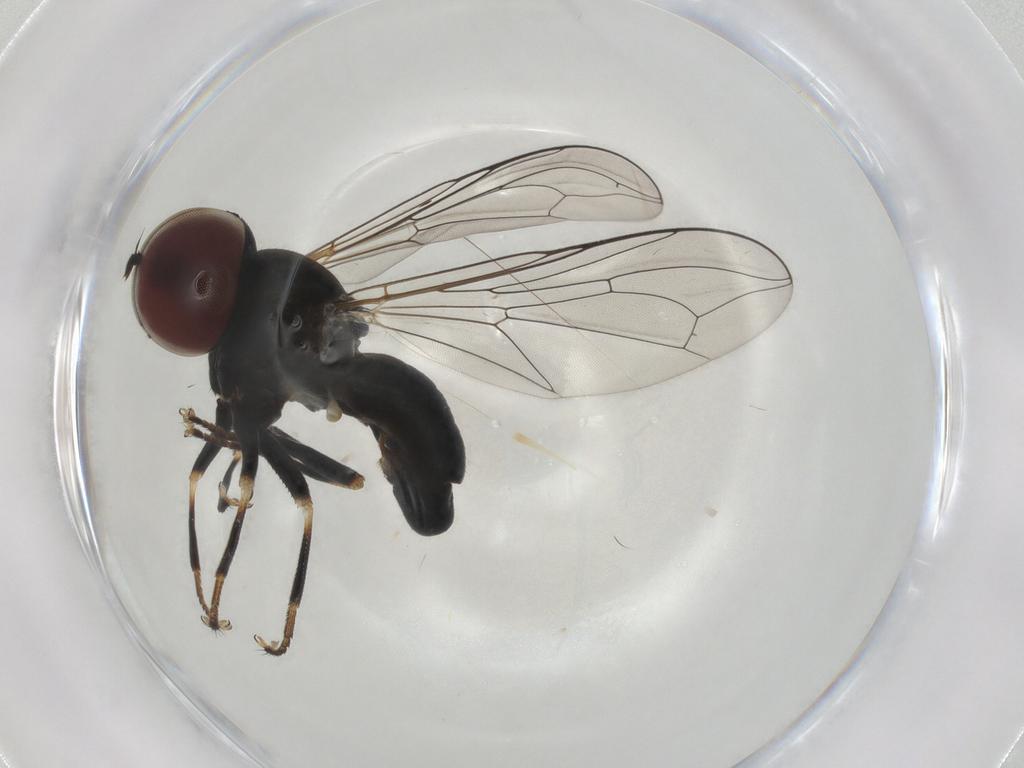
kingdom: Animalia
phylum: Arthropoda
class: Insecta
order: Diptera
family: Pipunculidae
